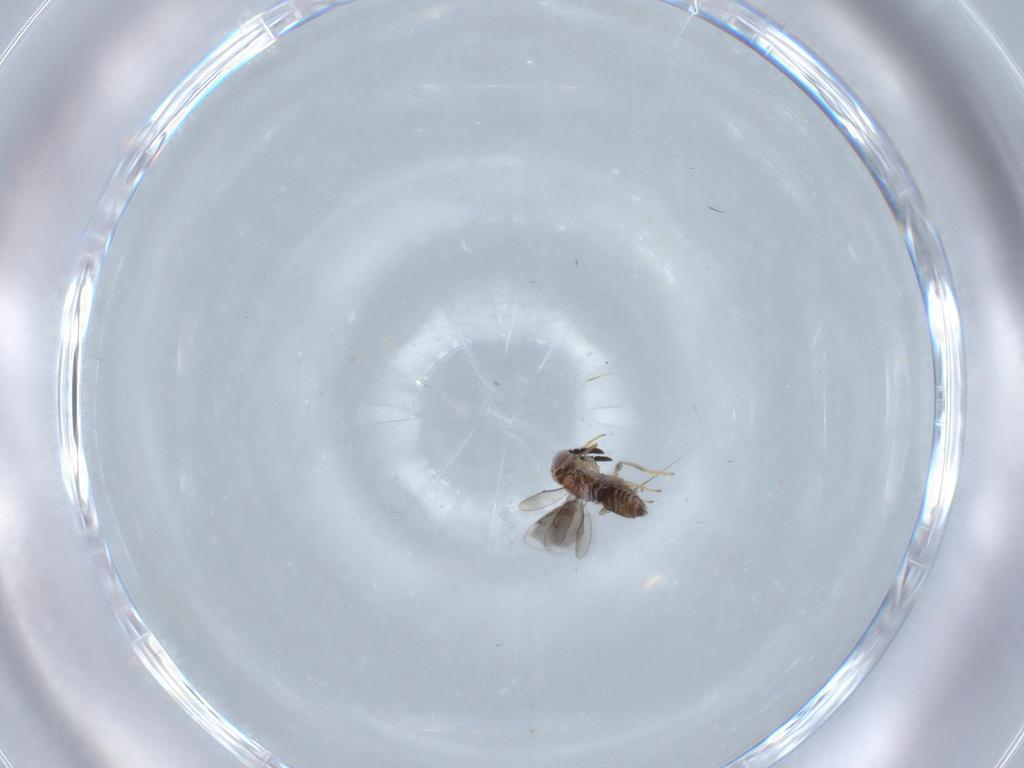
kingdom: Animalia
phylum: Arthropoda
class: Insecta
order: Hymenoptera
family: Aphelinidae
